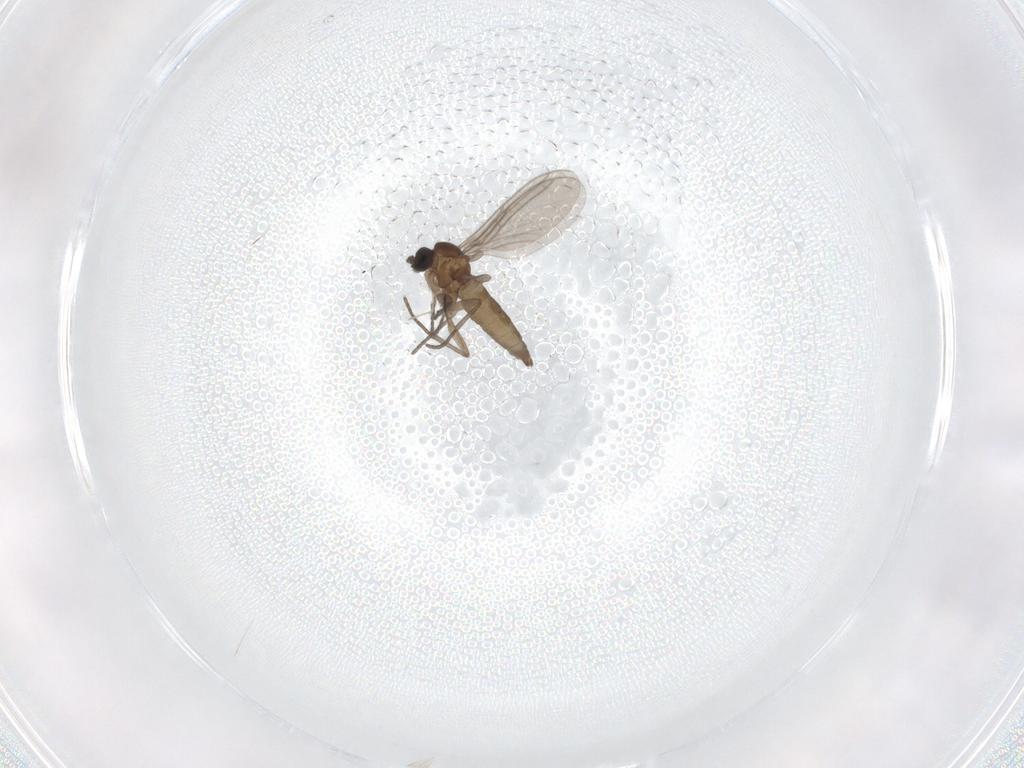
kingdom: Animalia
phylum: Arthropoda
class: Insecta
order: Diptera
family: Cecidomyiidae
